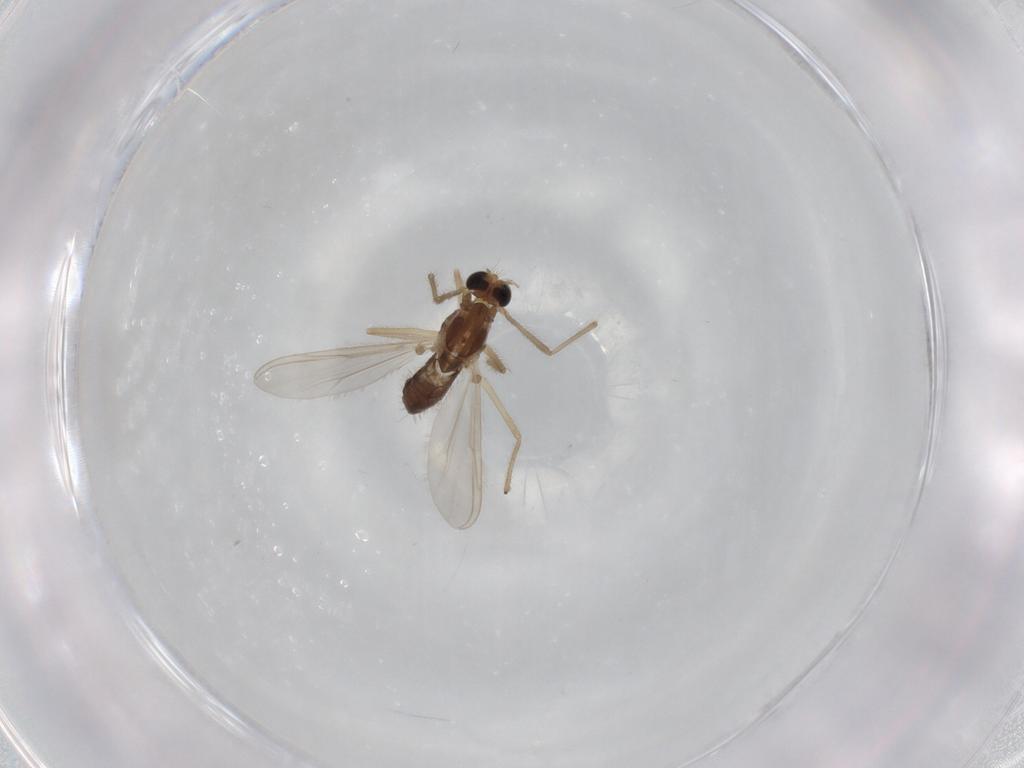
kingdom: Animalia
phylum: Arthropoda
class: Insecta
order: Diptera
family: Chironomidae
